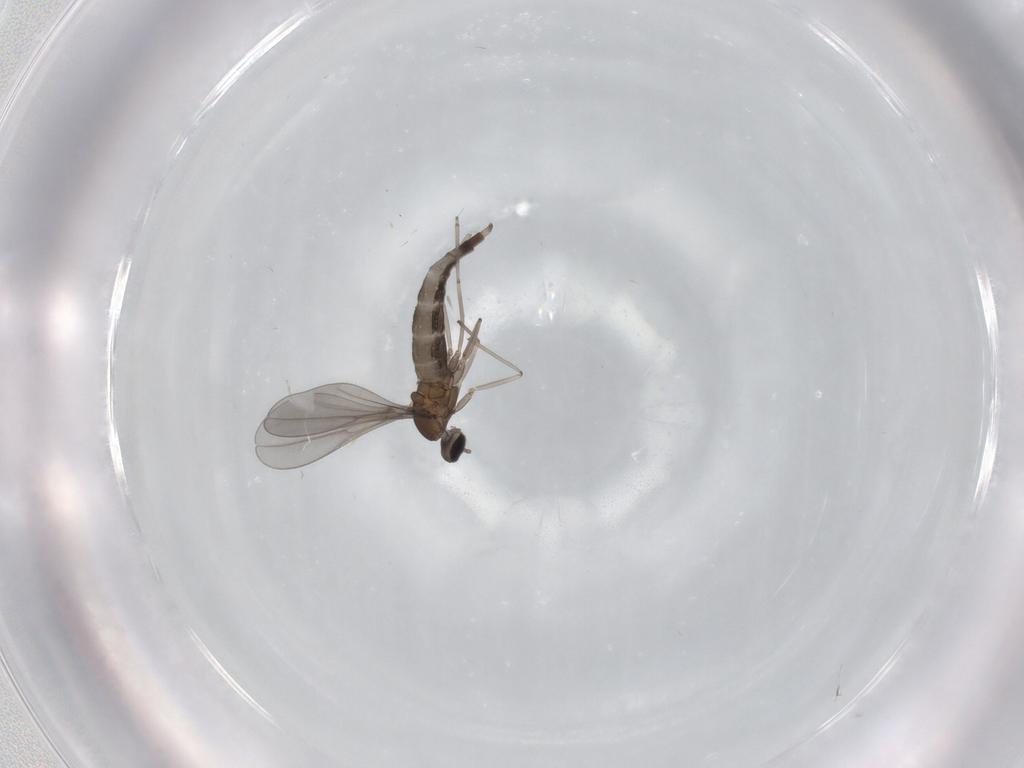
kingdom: Animalia
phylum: Arthropoda
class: Insecta
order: Diptera
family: Cecidomyiidae
